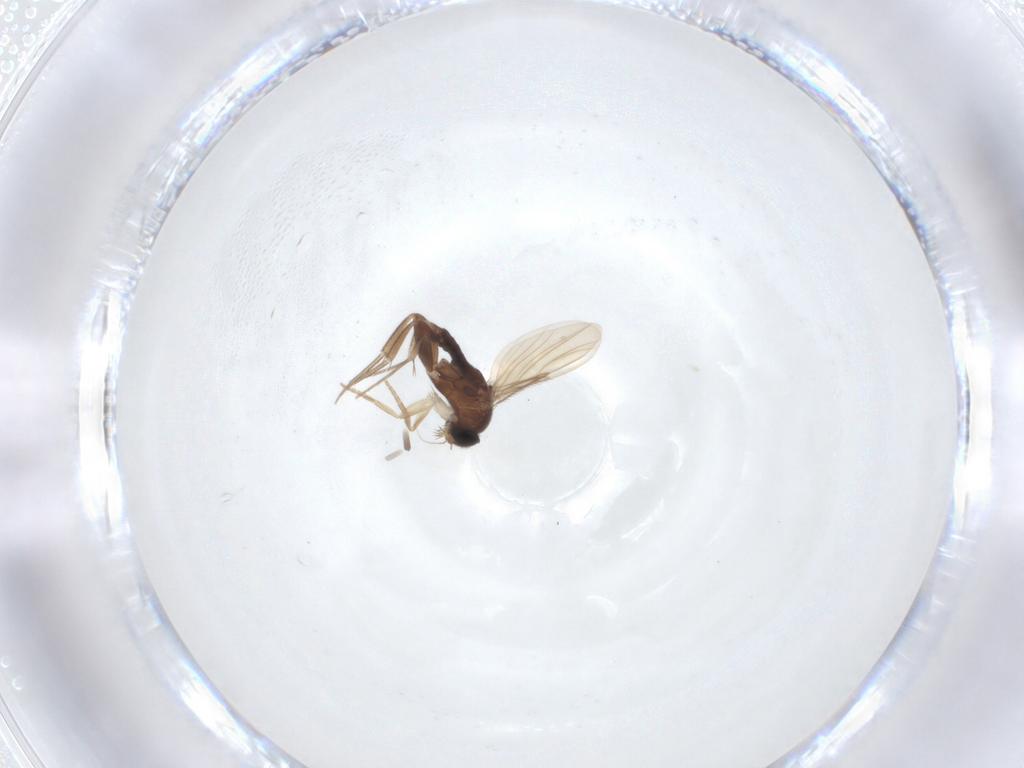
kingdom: Animalia
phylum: Arthropoda
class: Insecta
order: Diptera
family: Phoridae
